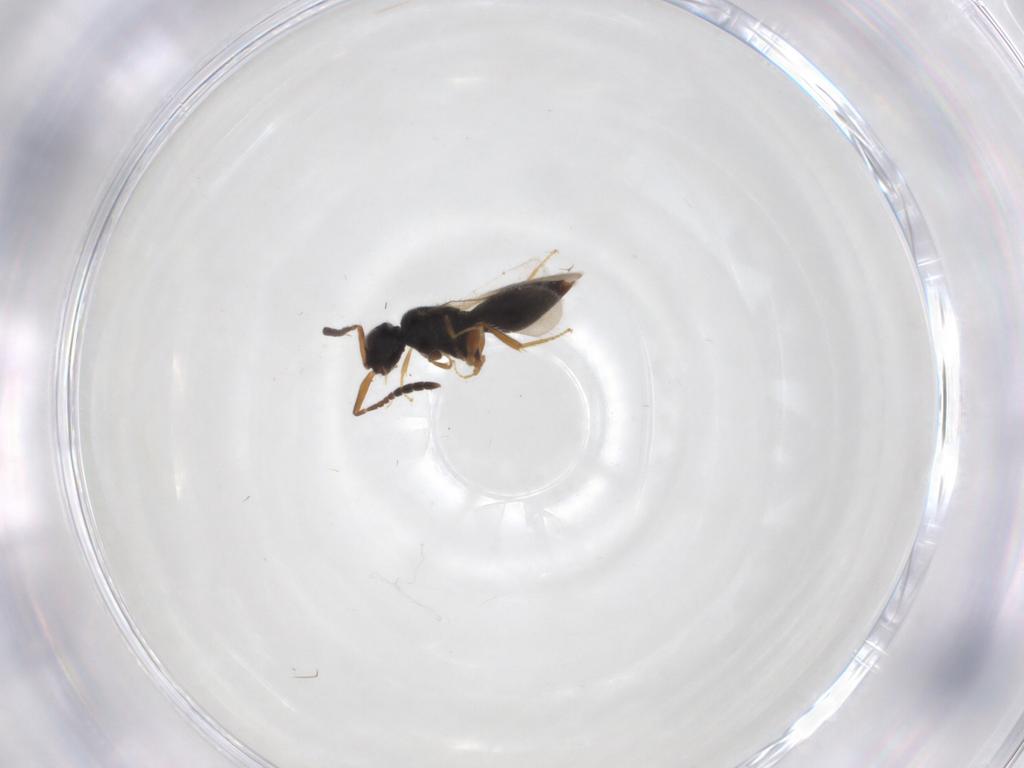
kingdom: Animalia
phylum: Arthropoda
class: Insecta
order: Hymenoptera
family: Ceraphronidae
